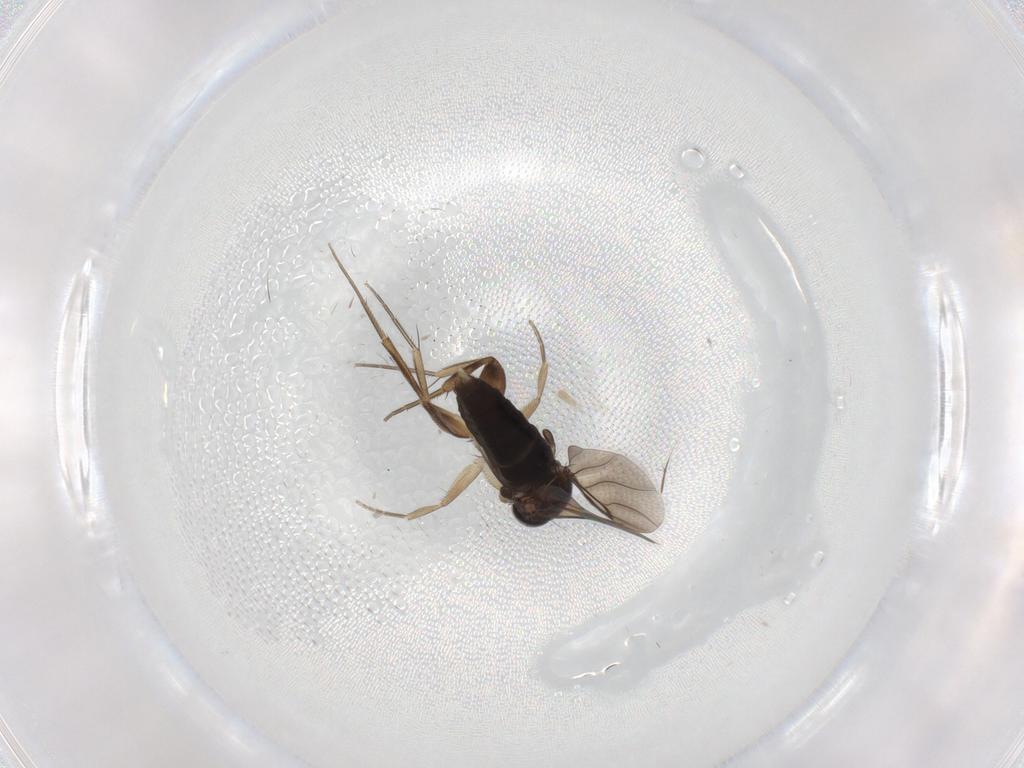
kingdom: Animalia
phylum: Arthropoda
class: Insecta
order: Diptera
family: Phoridae
